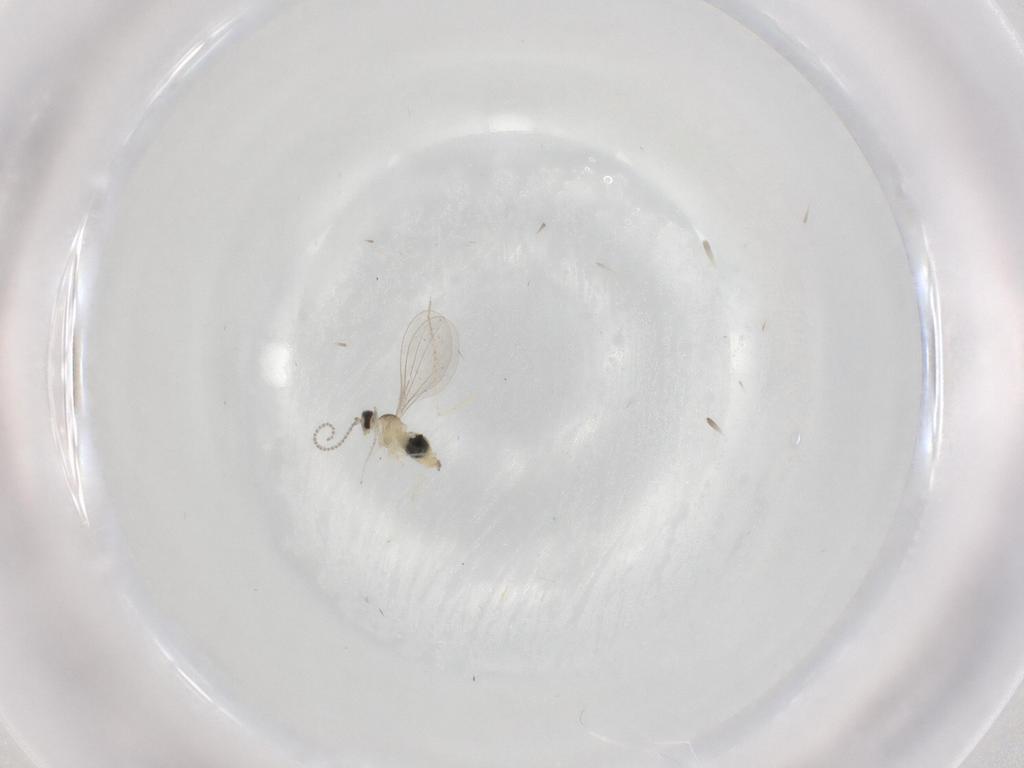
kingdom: Animalia
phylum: Arthropoda
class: Insecta
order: Diptera
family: Cecidomyiidae
